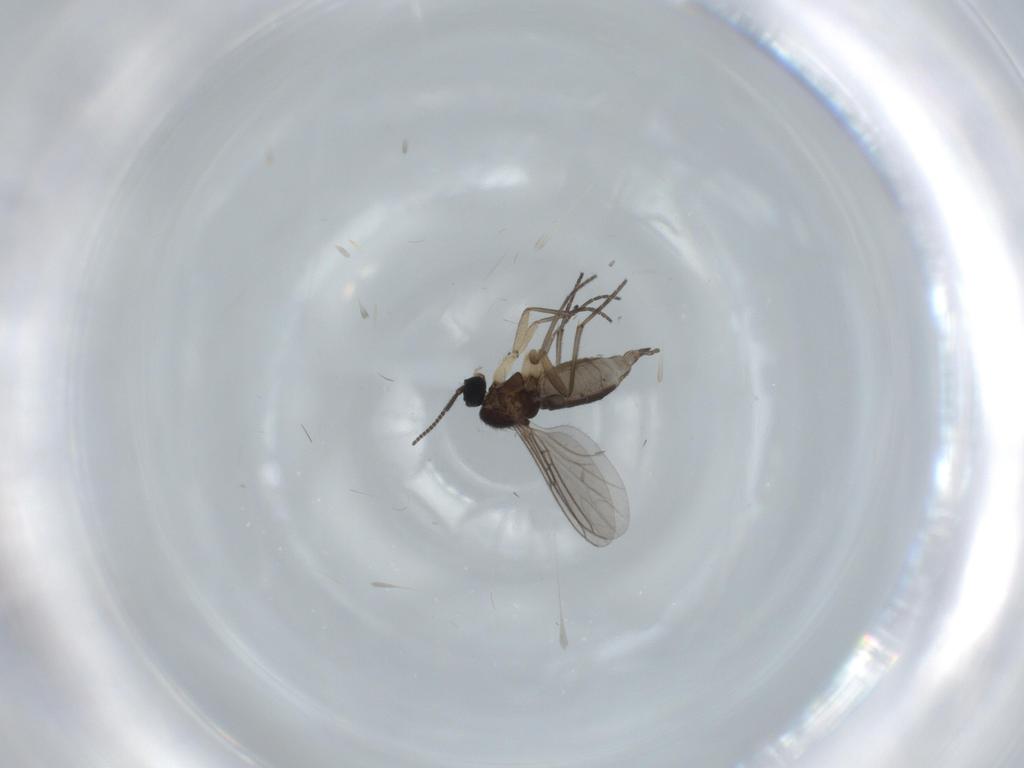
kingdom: Animalia
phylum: Arthropoda
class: Insecta
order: Diptera
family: Sciaridae
